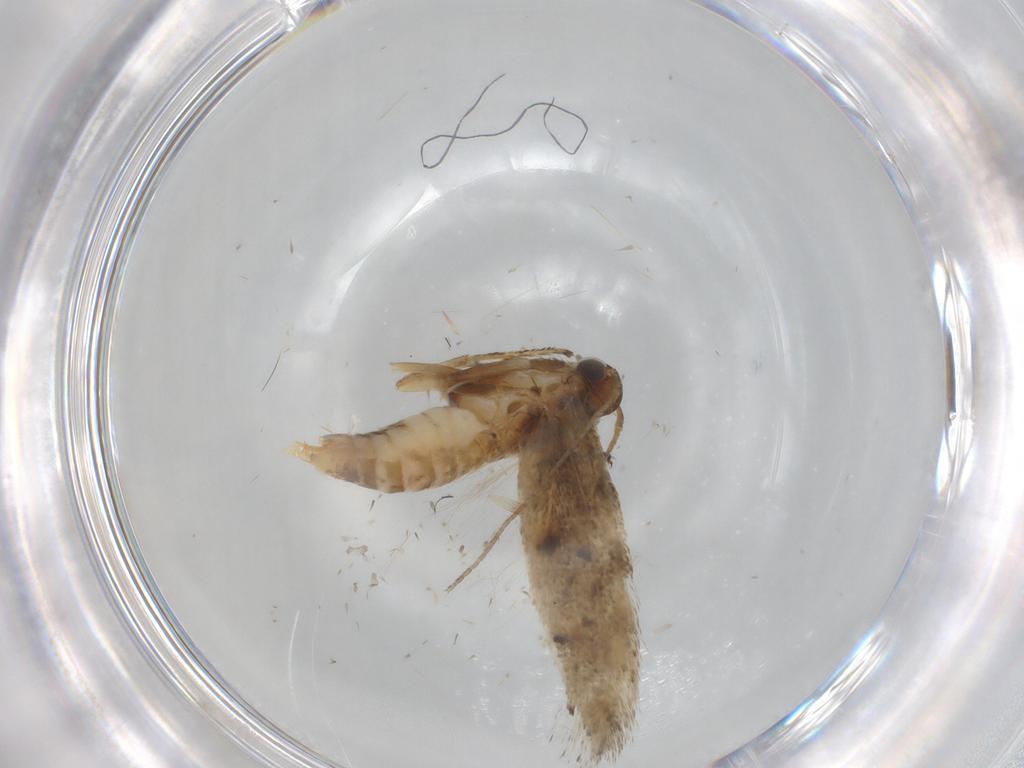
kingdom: Animalia
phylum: Arthropoda
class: Insecta
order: Lepidoptera
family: Gelechiidae
